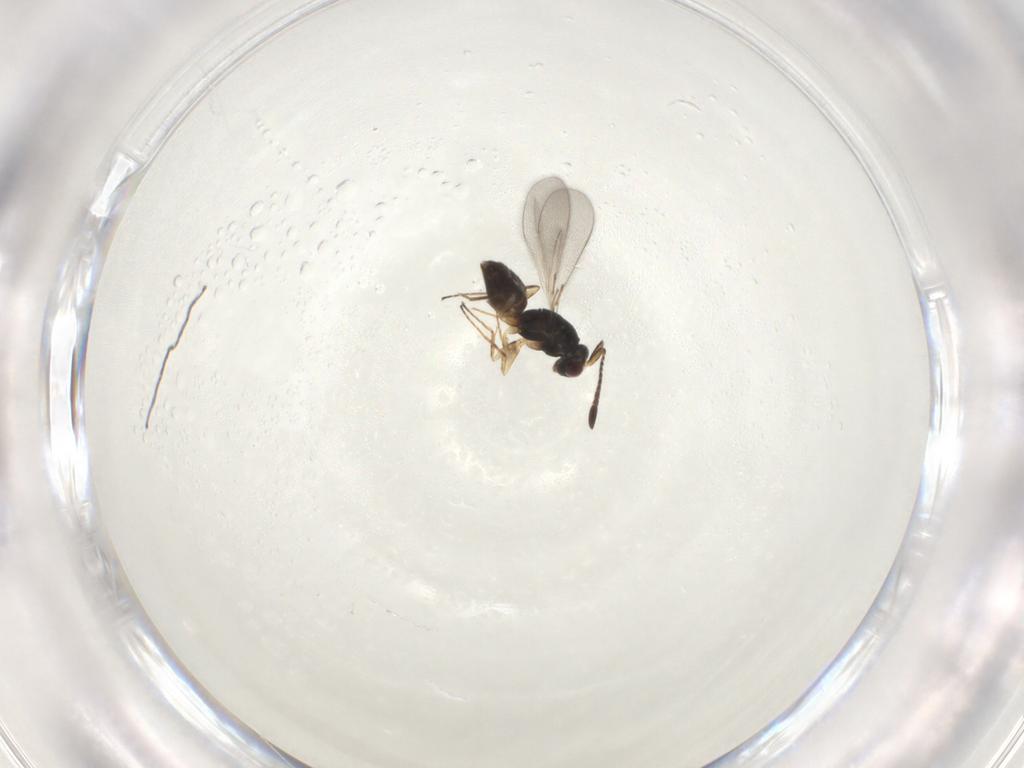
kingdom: Animalia
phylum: Arthropoda
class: Insecta
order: Hymenoptera
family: Mymaridae
